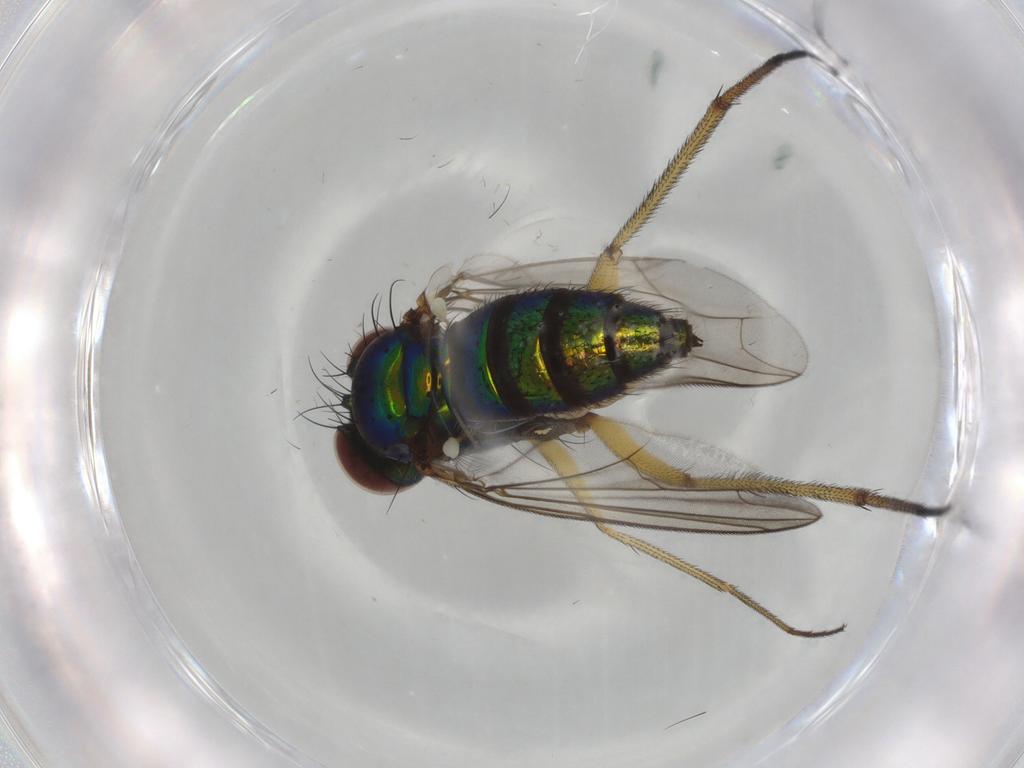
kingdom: Animalia
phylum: Arthropoda
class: Insecta
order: Diptera
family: Dolichopodidae
